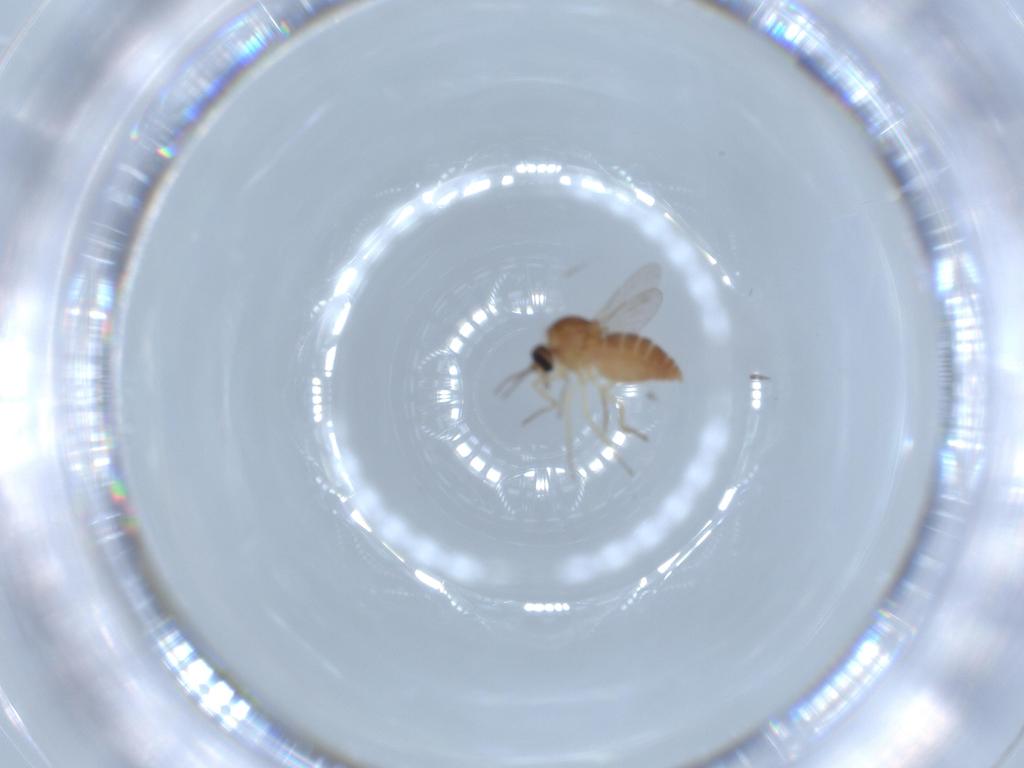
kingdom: Animalia
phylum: Arthropoda
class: Insecta
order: Diptera
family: Ceratopogonidae
